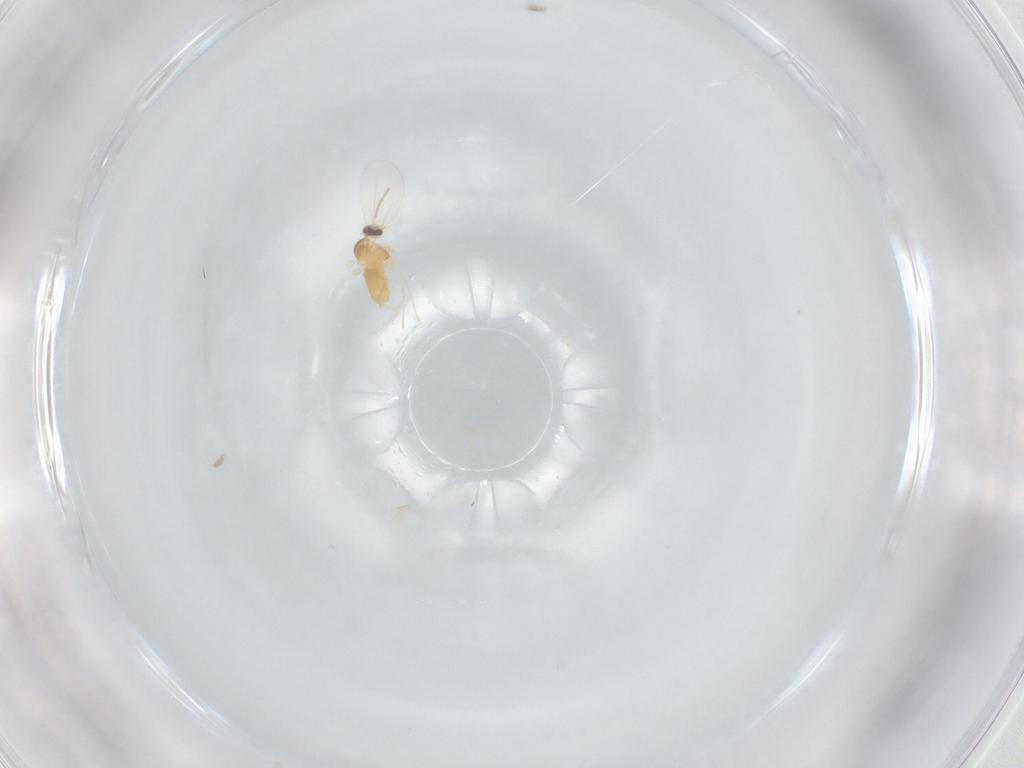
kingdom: Animalia
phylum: Arthropoda
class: Insecta
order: Diptera
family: Cecidomyiidae
